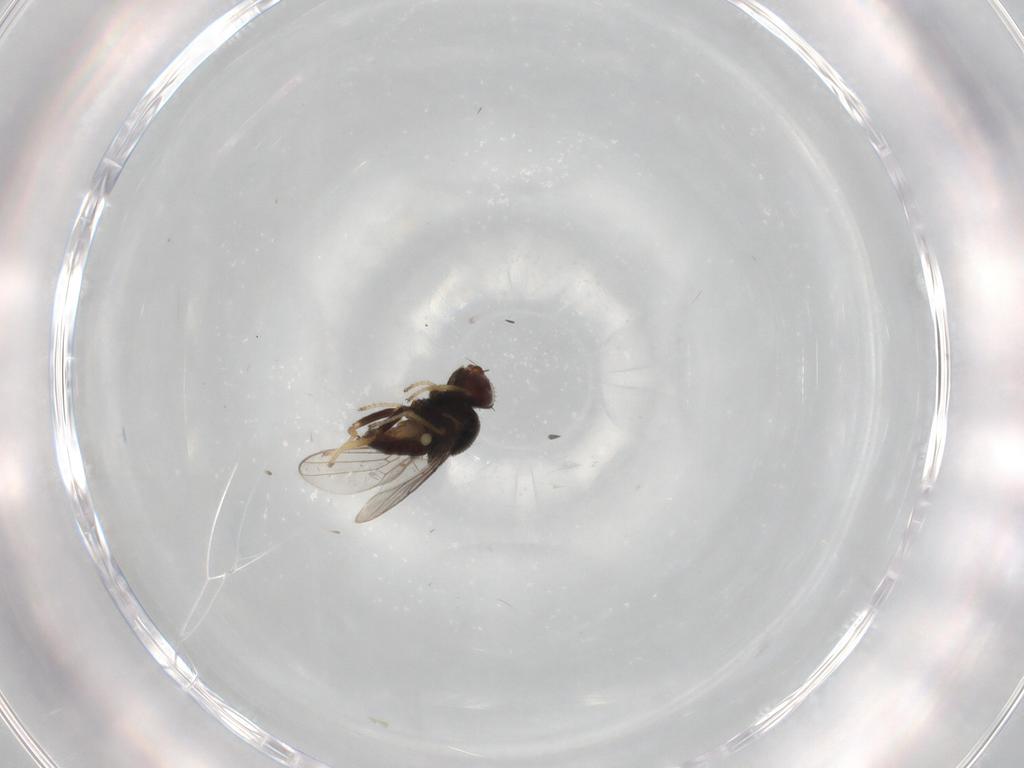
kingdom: Animalia
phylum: Arthropoda
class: Insecta
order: Diptera
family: Chloropidae
